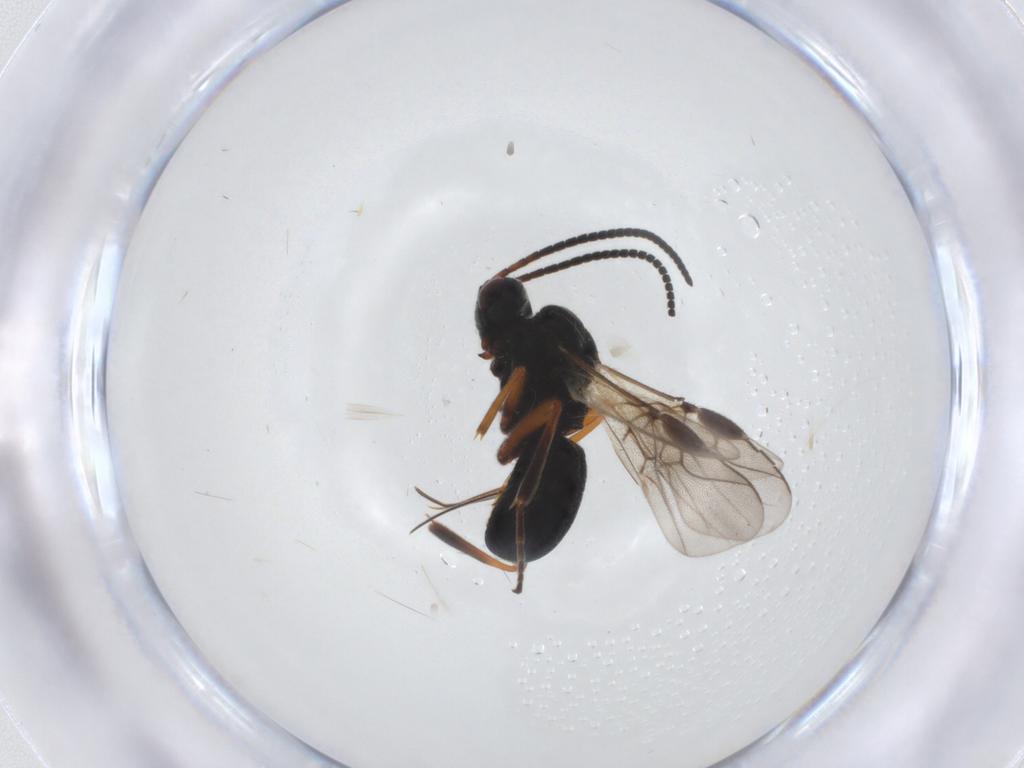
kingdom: Animalia
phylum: Arthropoda
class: Insecta
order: Hymenoptera
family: Braconidae
